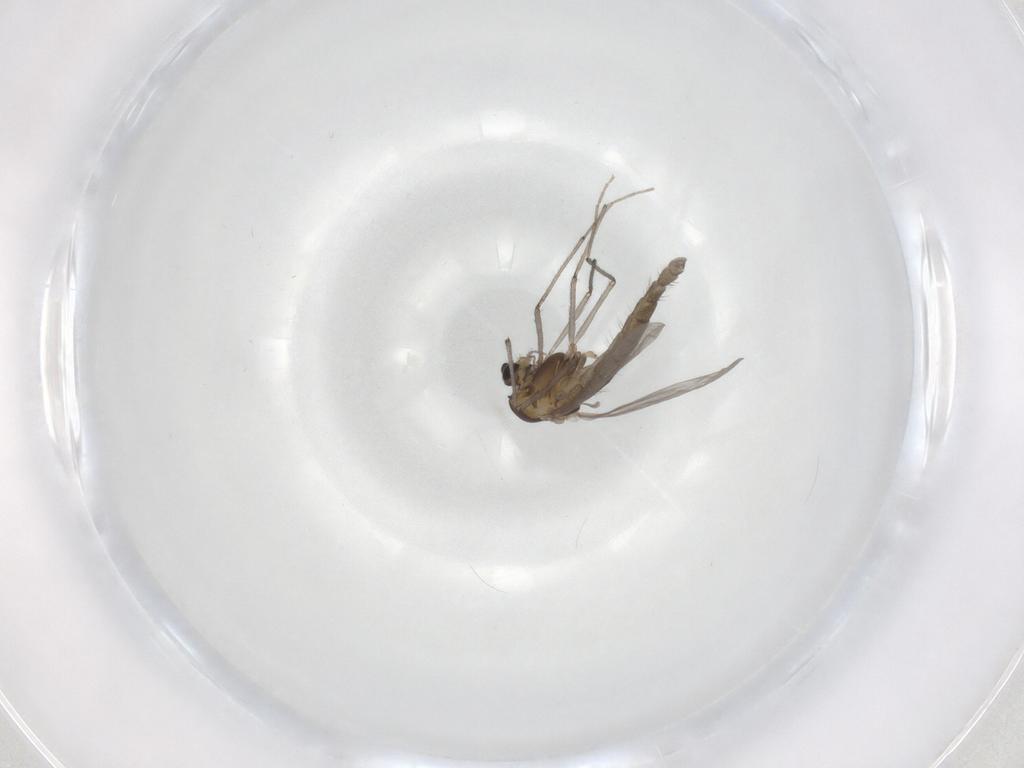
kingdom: Animalia
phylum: Arthropoda
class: Insecta
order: Diptera
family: Chironomidae
